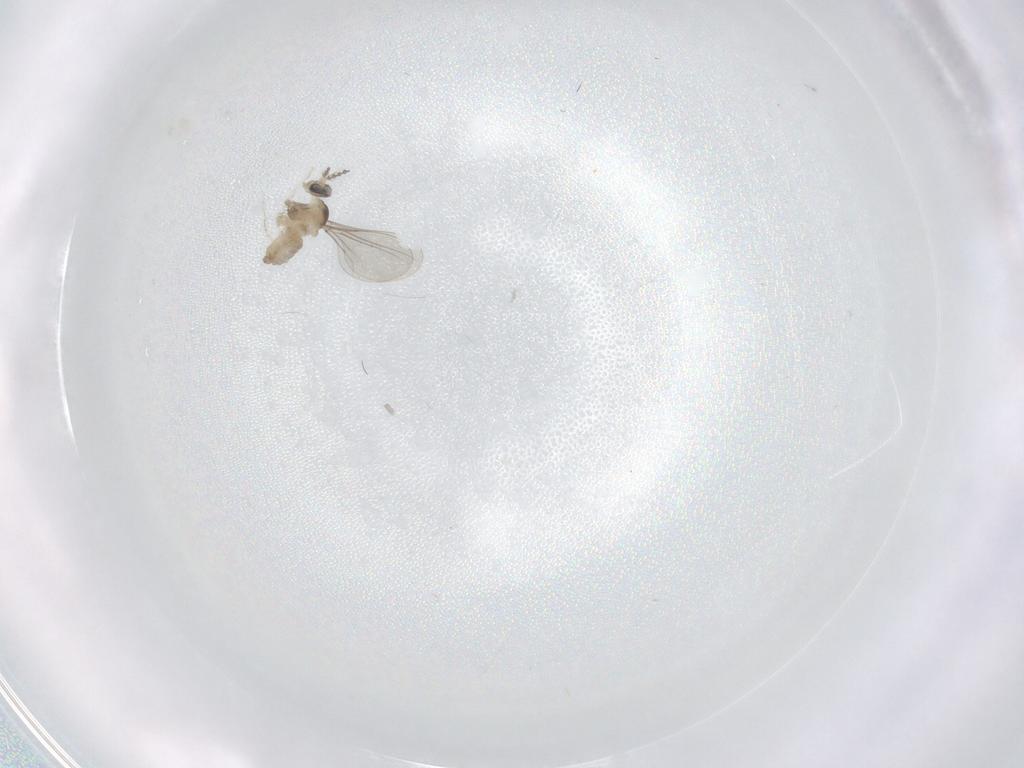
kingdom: Animalia
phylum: Arthropoda
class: Insecta
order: Diptera
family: Cecidomyiidae
